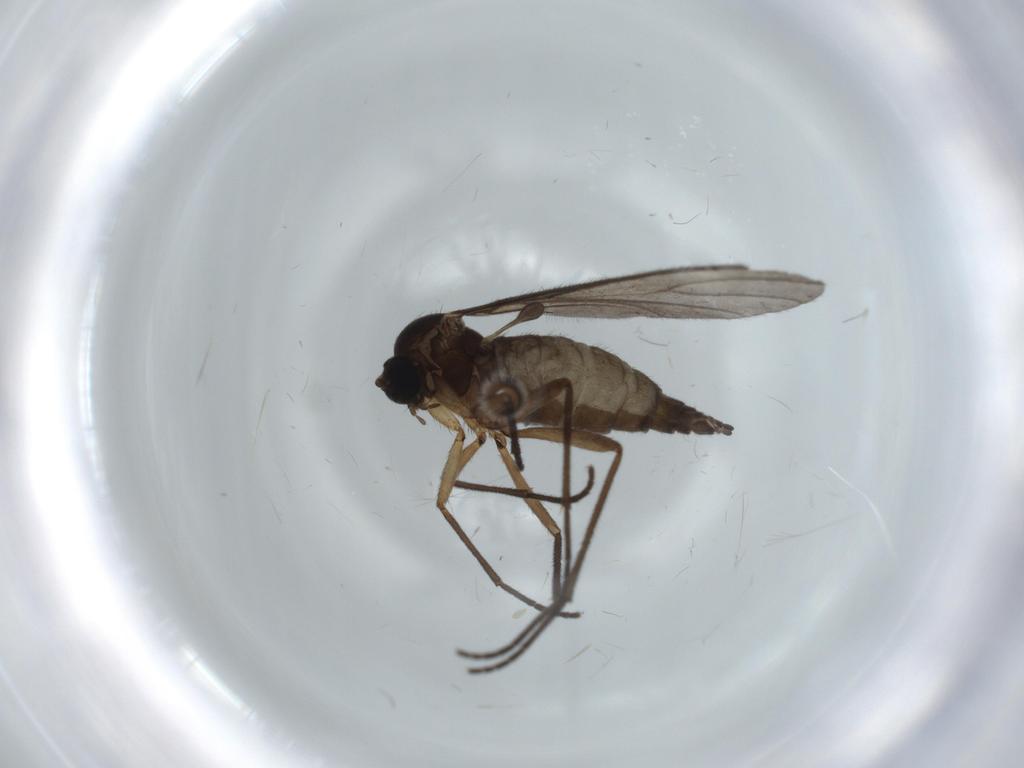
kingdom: Animalia
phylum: Arthropoda
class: Insecta
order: Diptera
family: Sciaridae
